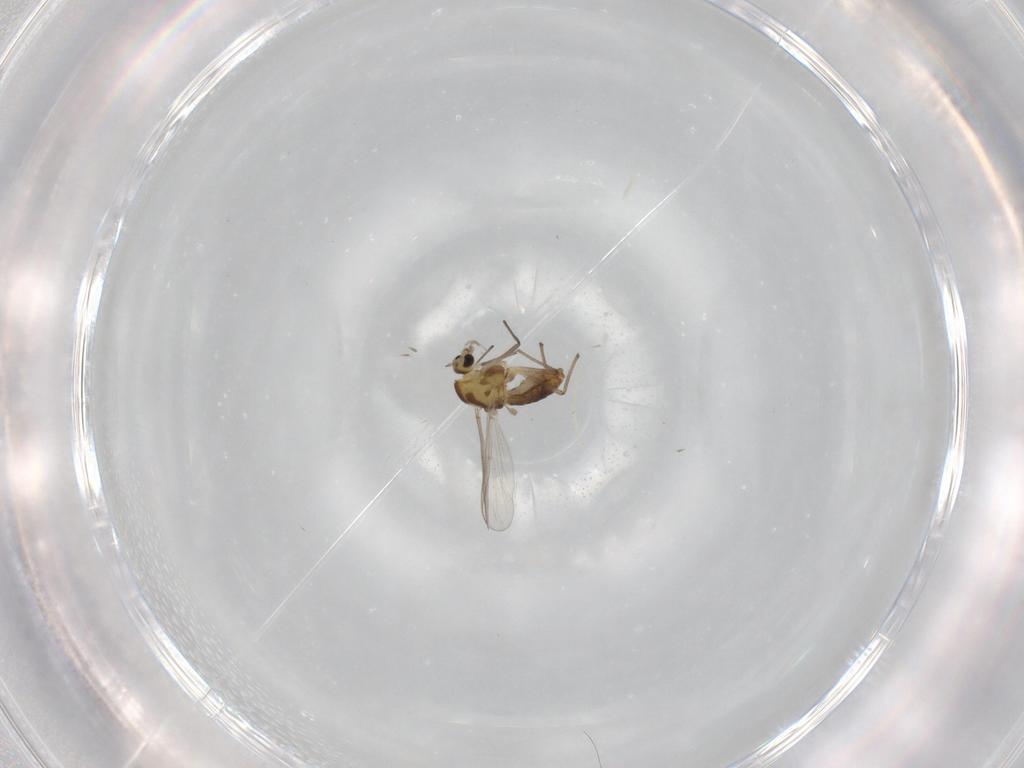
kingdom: Animalia
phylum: Arthropoda
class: Insecta
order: Diptera
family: Chironomidae
